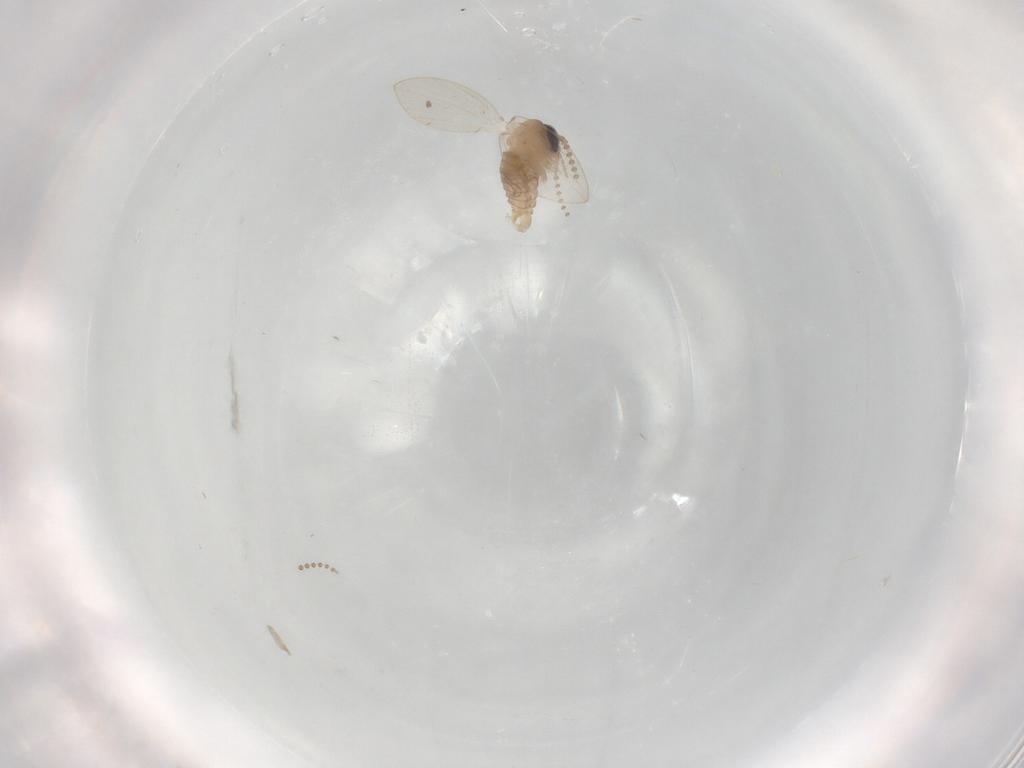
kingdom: Animalia
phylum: Arthropoda
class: Insecta
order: Diptera
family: Psychodidae
